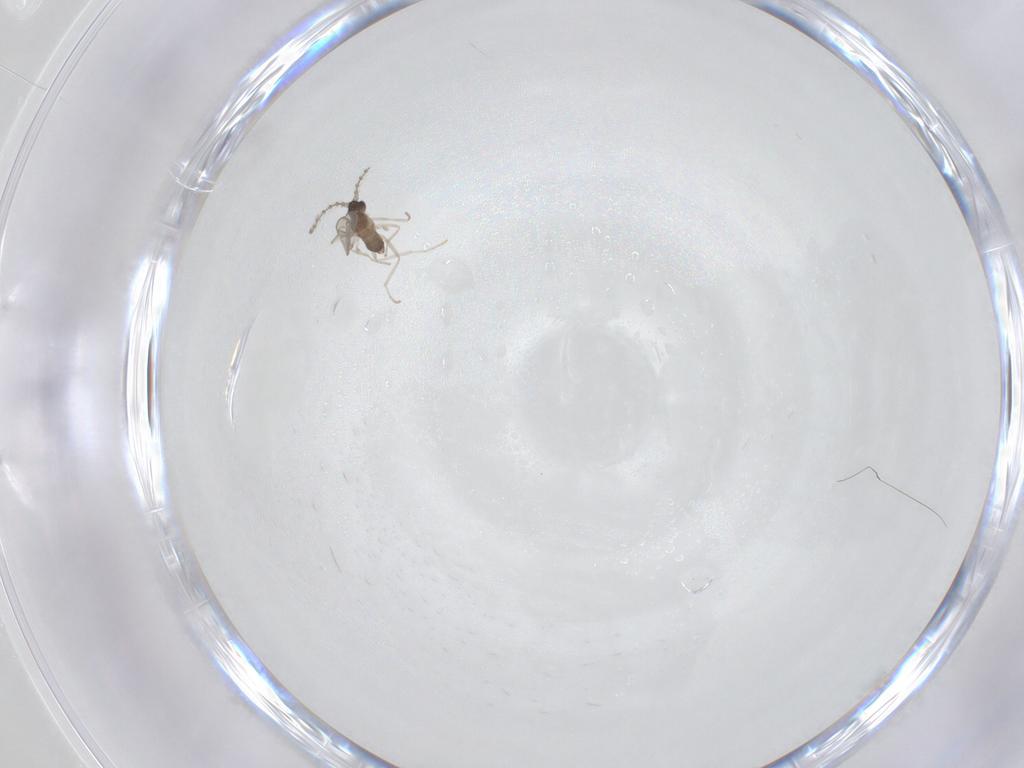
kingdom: Animalia
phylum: Arthropoda
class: Insecta
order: Diptera
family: Cecidomyiidae
